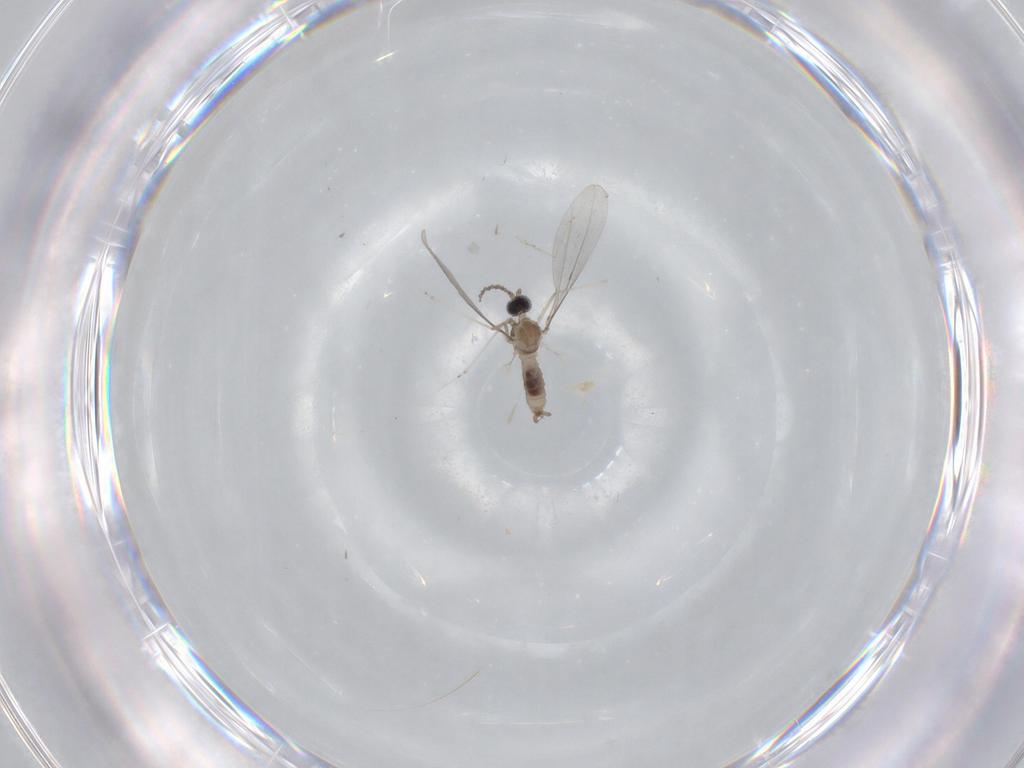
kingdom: Animalia
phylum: Arthropoda
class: Insecta
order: Diptera
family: Cecidomyiidae
